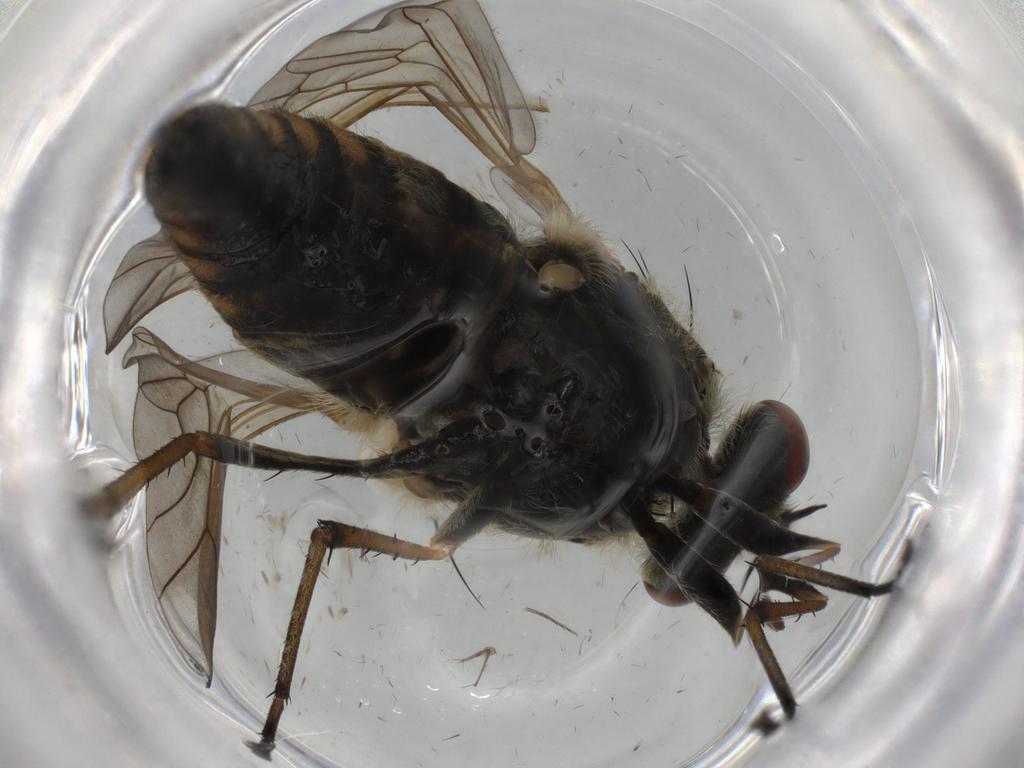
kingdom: Animalia
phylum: Arthropoda
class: Insecta
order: Diptera
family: Therevidae
